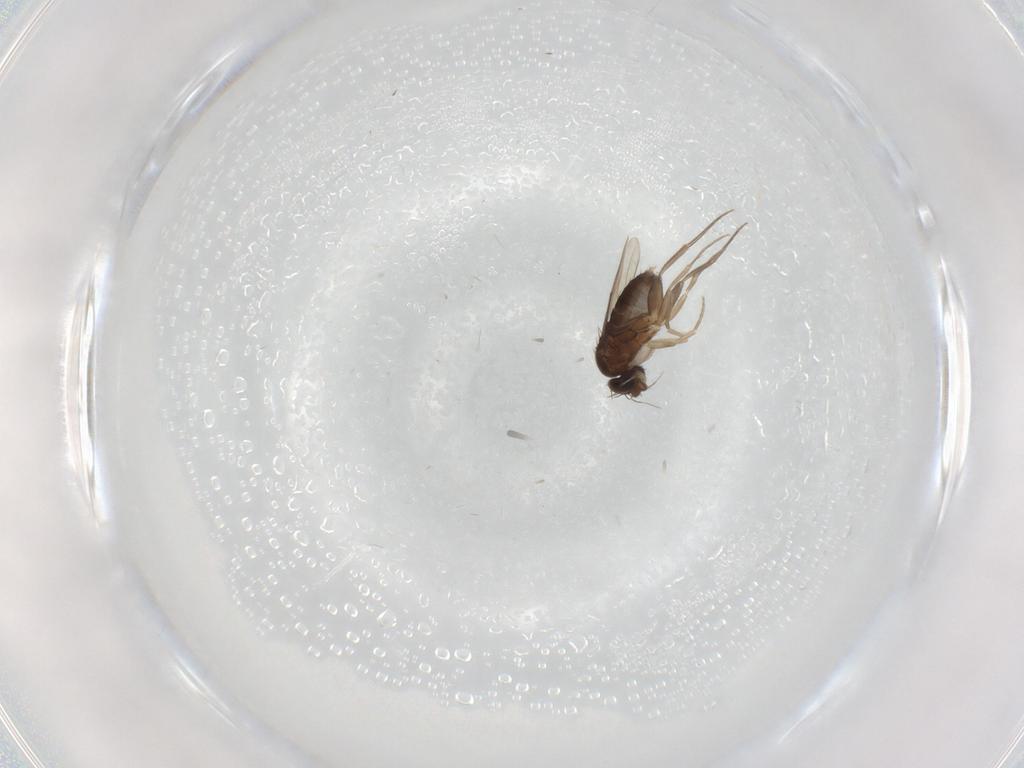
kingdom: Animalia
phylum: Arthropoda
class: Insecta
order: Diptera
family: Phoridae
